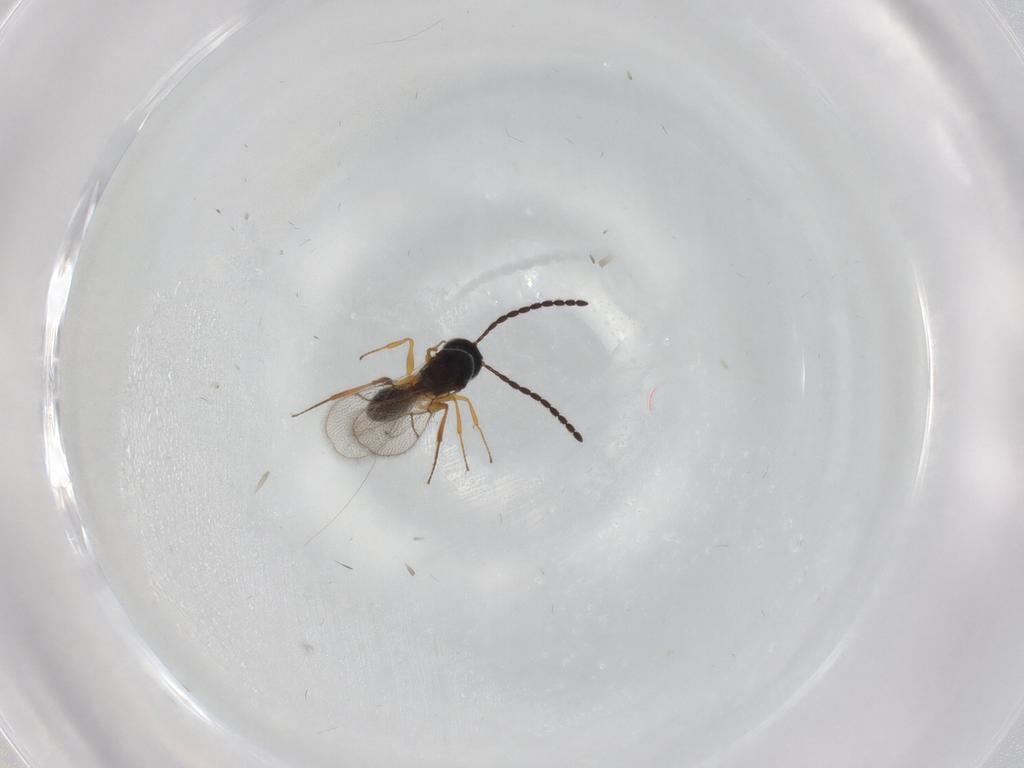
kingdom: Animalia
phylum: Arthropoda
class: Insecta
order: Hymenoptera
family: Figitidae
